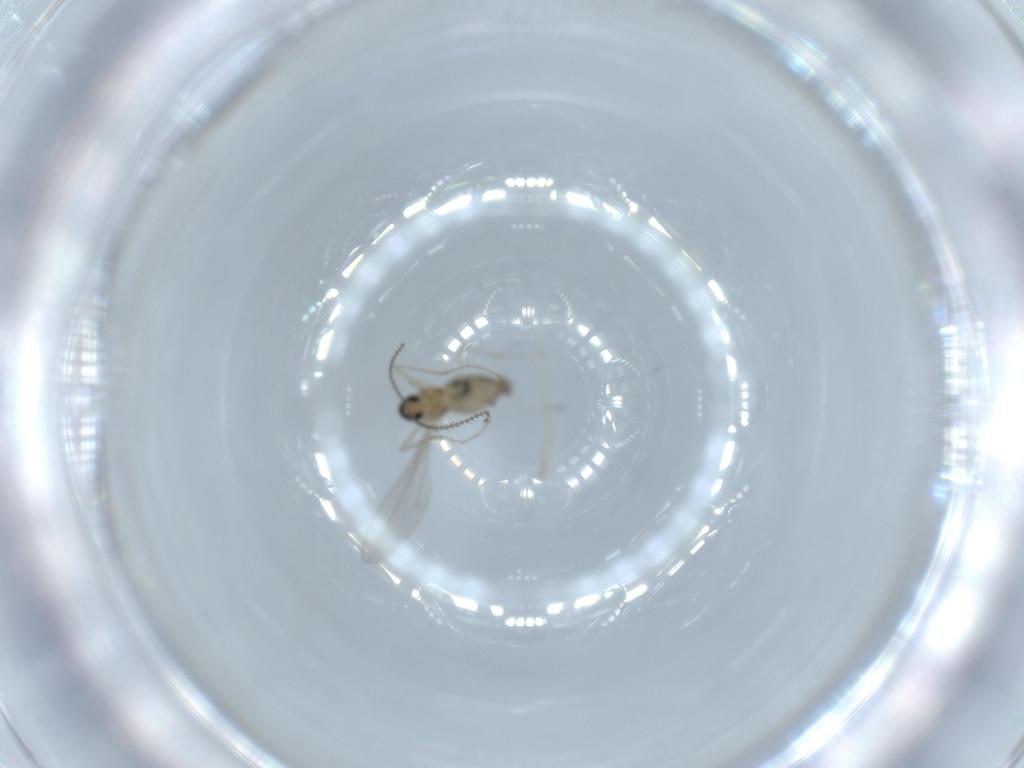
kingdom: Animalia
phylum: Arthropoda
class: Insecta
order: Diptera
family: Cecidomyiidae
